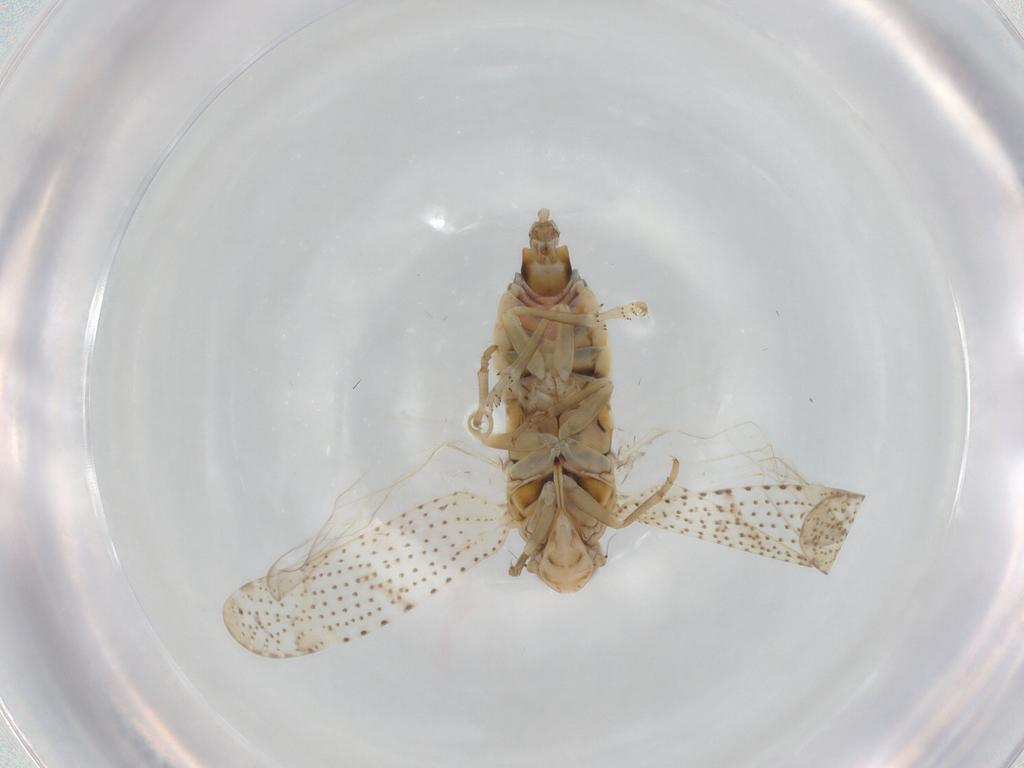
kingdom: Animalia
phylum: Arthropoda
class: Insecta
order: Hemiptera
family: Cixiidae
